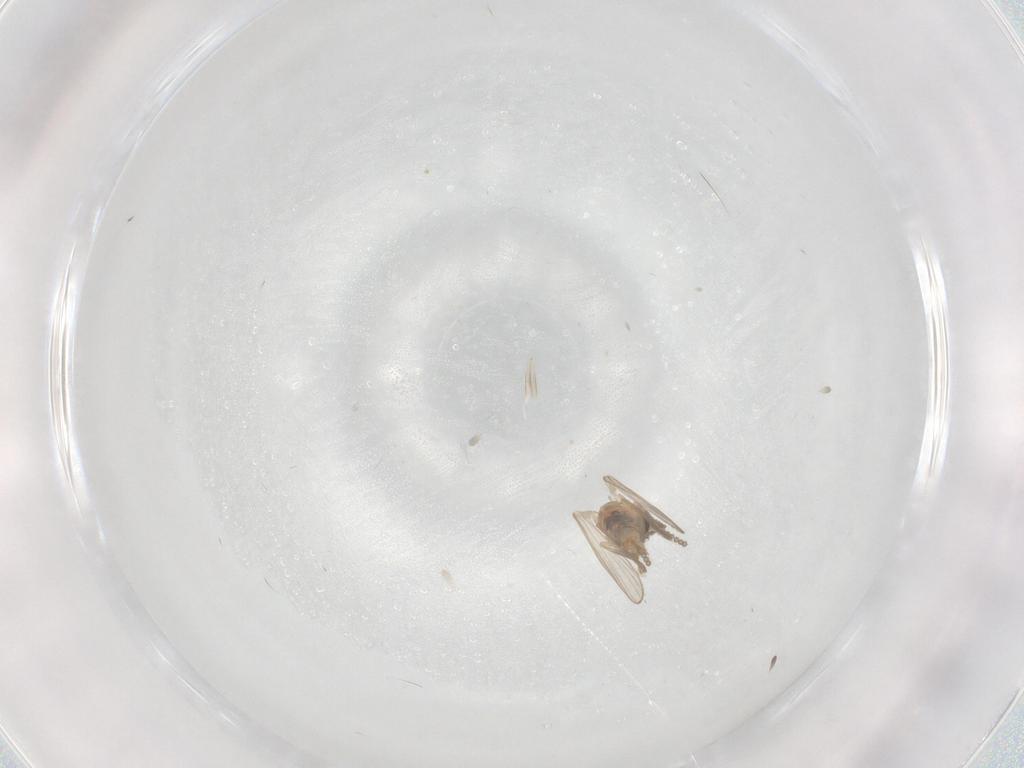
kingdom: Animalia
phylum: Arthropoda
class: Insecta
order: Diptera
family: Psychodidae
